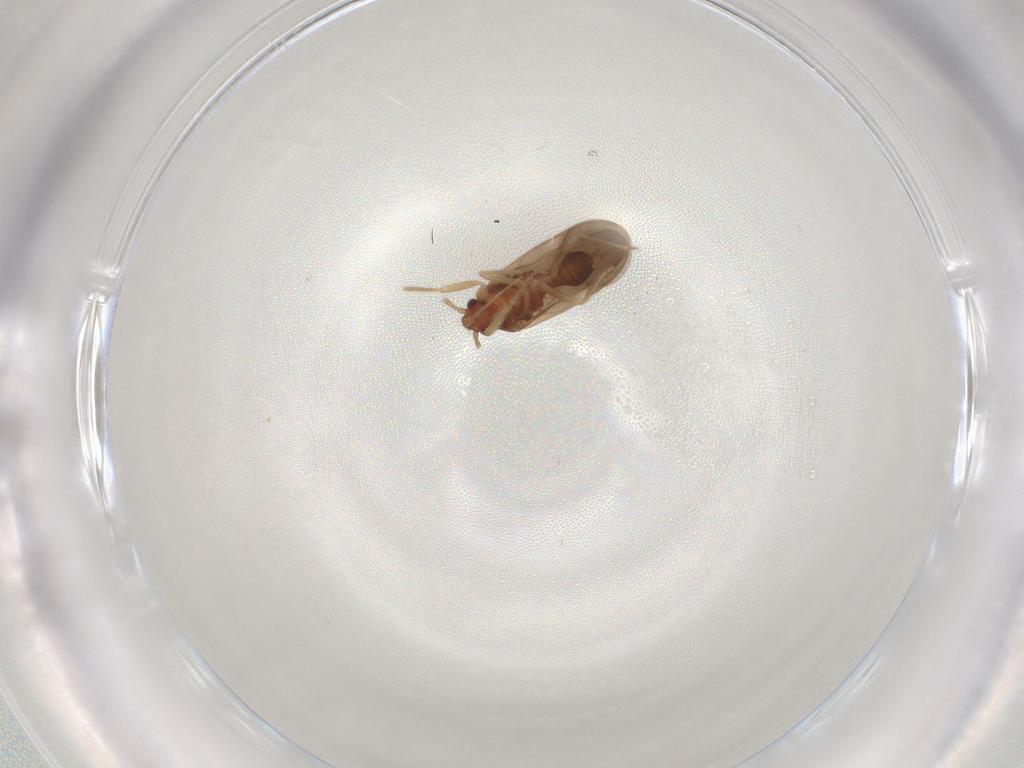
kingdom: Animalia
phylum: Arthropoda
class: Insecta
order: Hemiptera
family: Ceratocombidae
